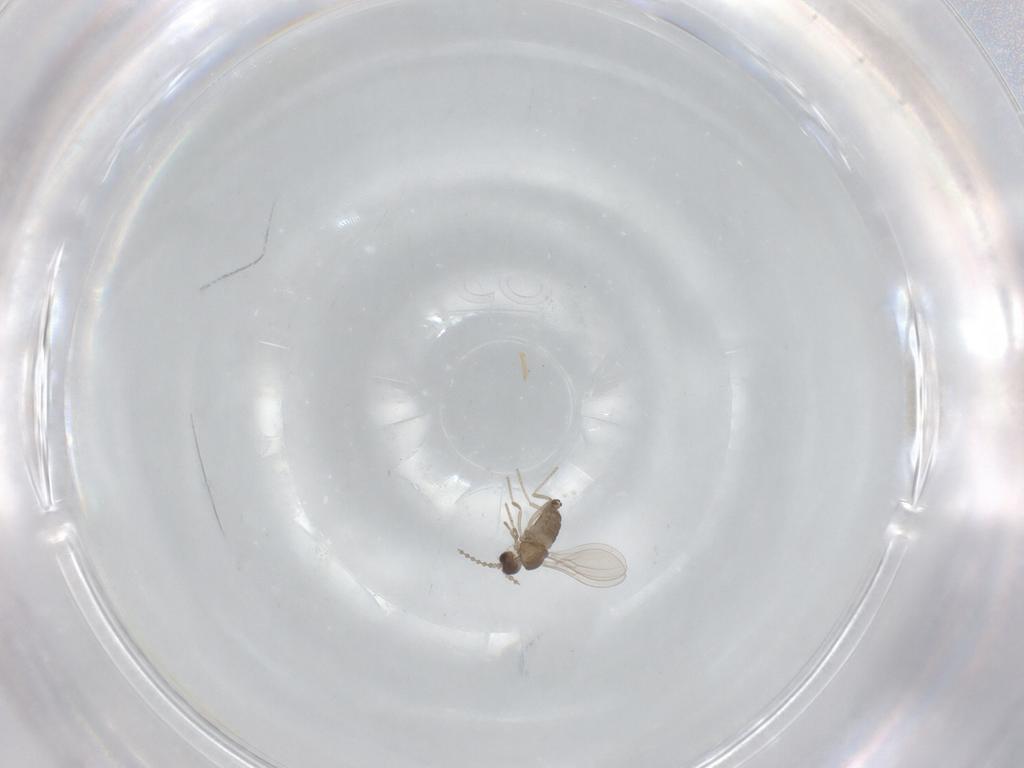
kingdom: Animalia
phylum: Arthropoda
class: Insecta
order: Diptera
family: Cecidomyiidae
